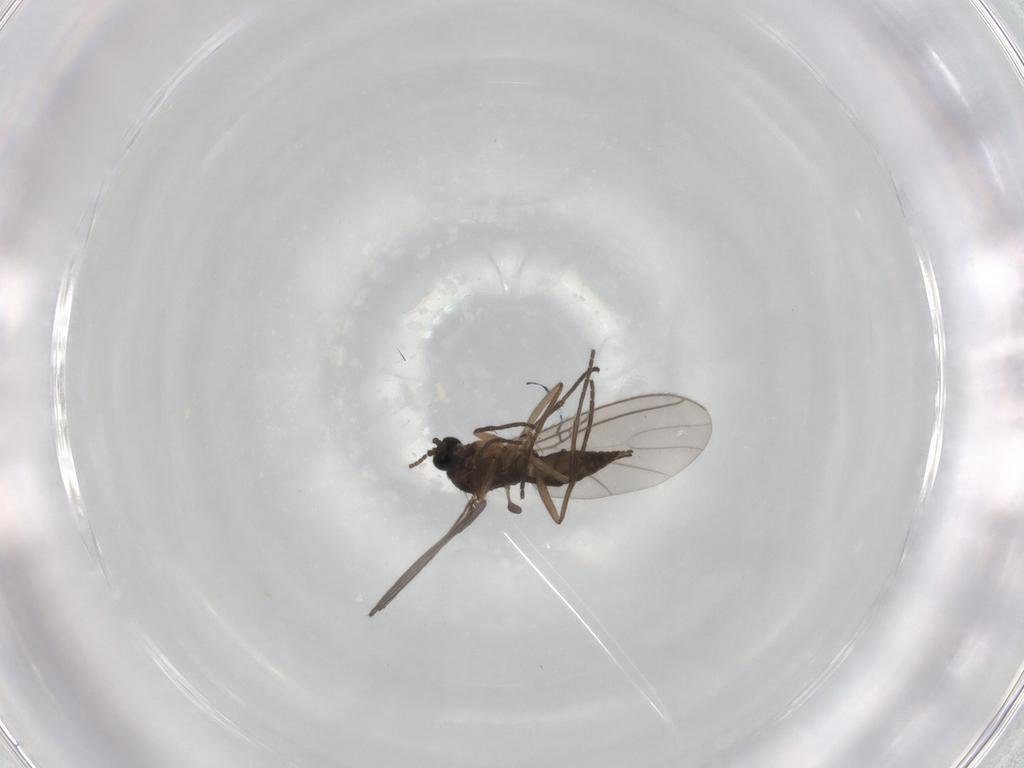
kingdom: Animalia
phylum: Arthropoda
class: Insecta
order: Diptera
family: Sciaridae
